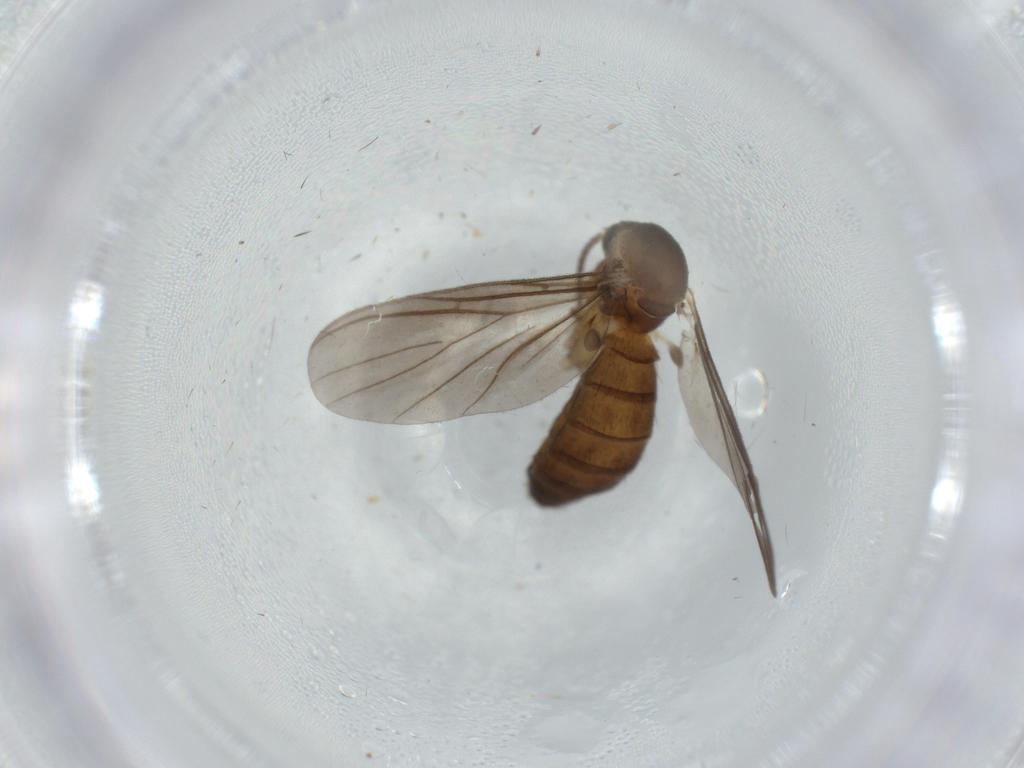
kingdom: Animalia
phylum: Arthropoda
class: Insecta
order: Diptera
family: Mycetophilidae
